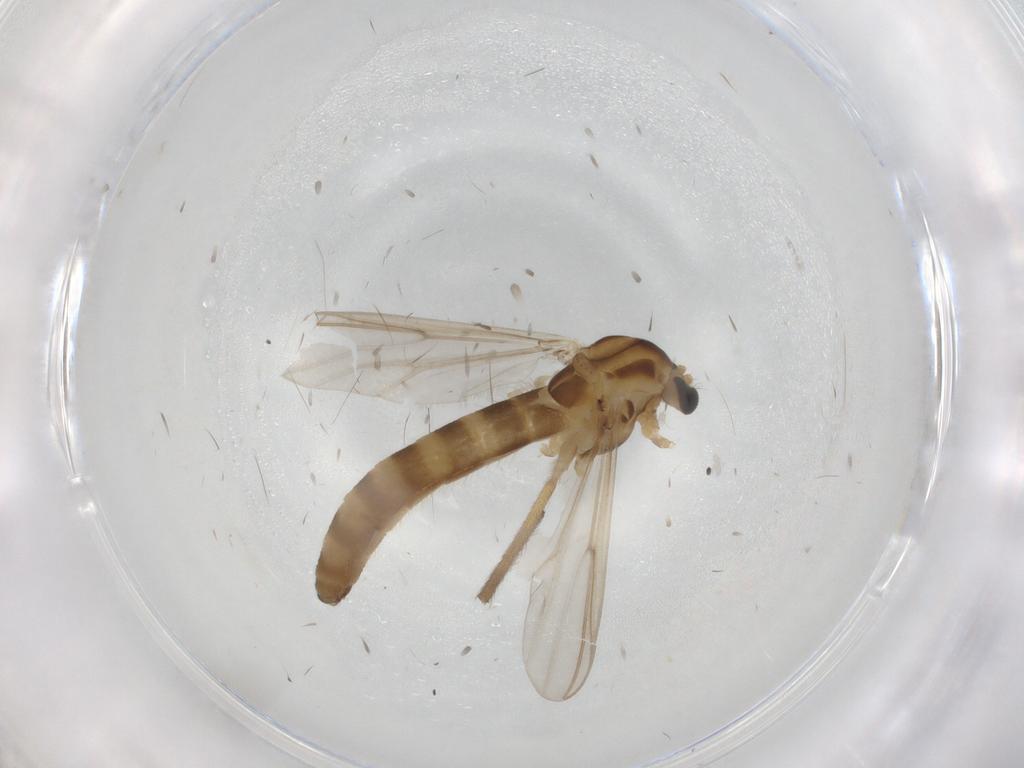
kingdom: Animalia
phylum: Arthropoda
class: Insecta
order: Diptera
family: Chironomidae
